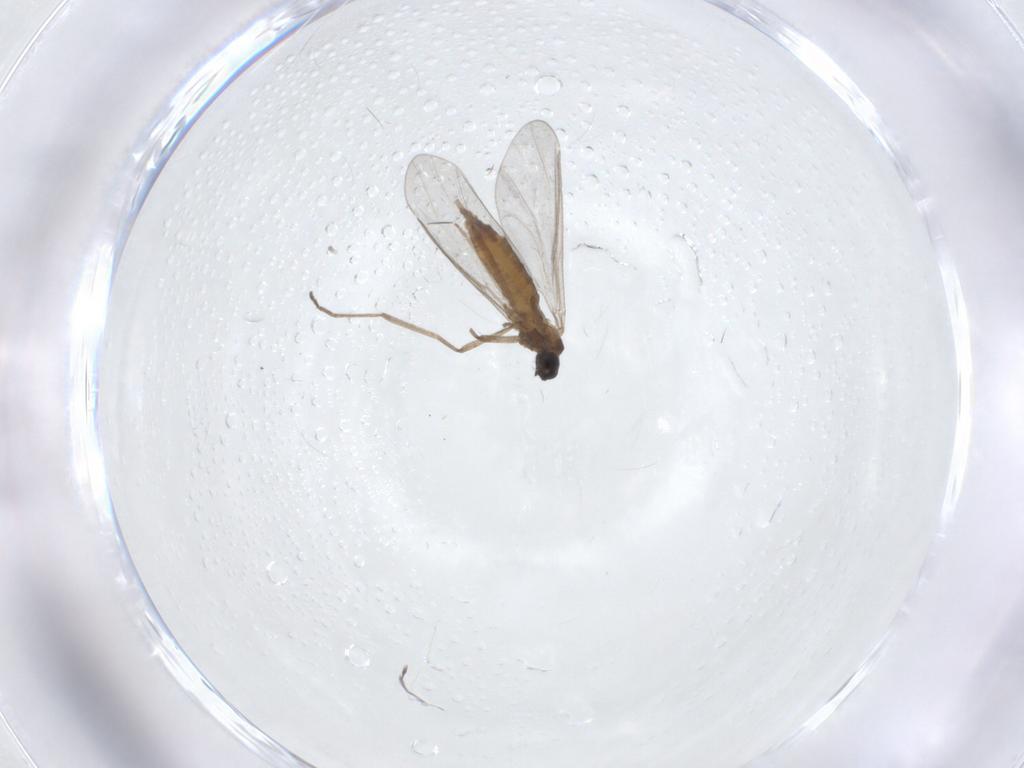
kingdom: Animalia
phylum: Arthropoda
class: Insecta
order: Diptera
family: Cecidomyiidae
